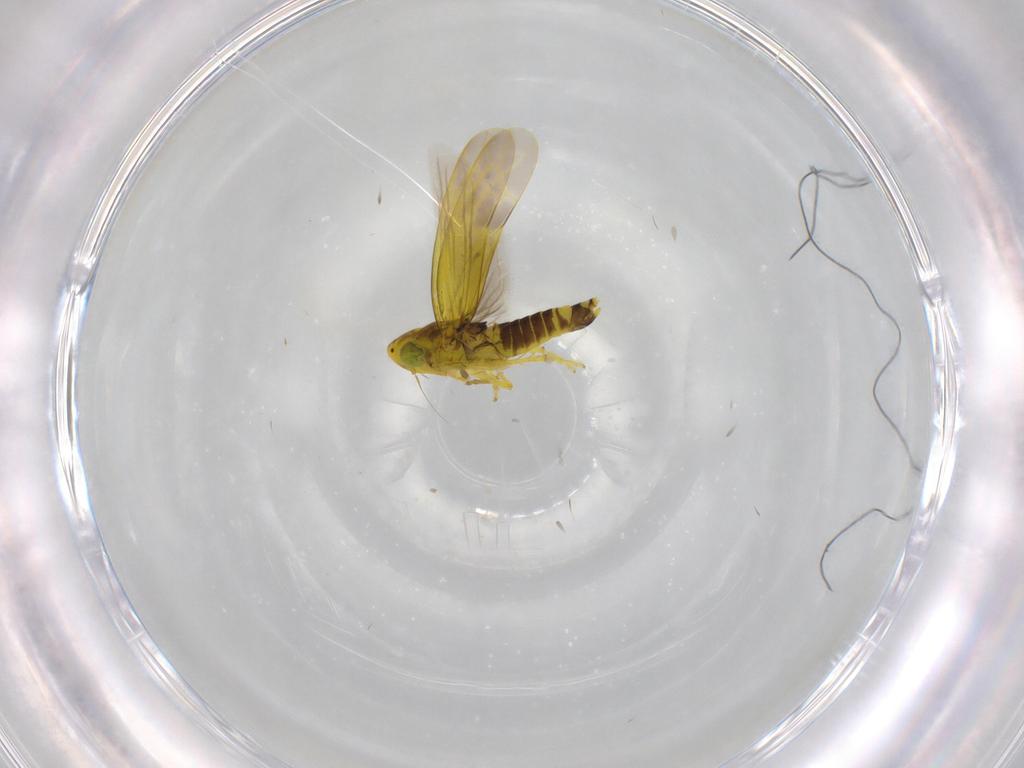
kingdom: Animalia
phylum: Arthropoda
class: Insecta
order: Hemiptera
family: Cicadellidae
